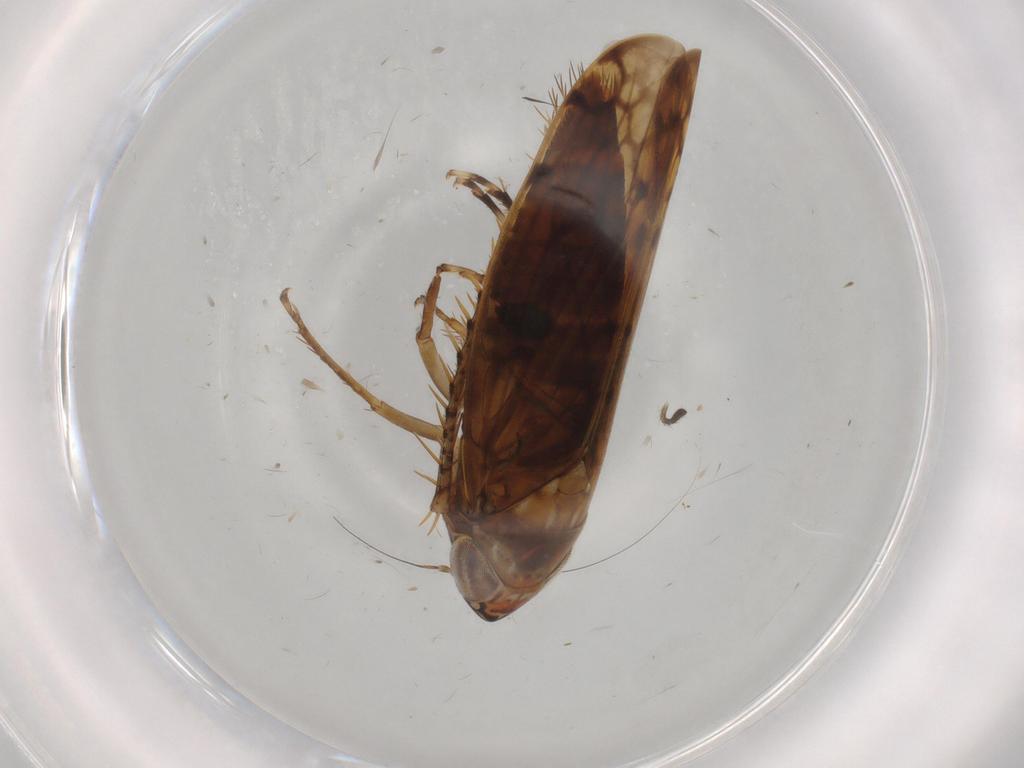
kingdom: Animalia
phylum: Arthropoda
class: Insecta
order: Hemiptera
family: Cicadellidae
